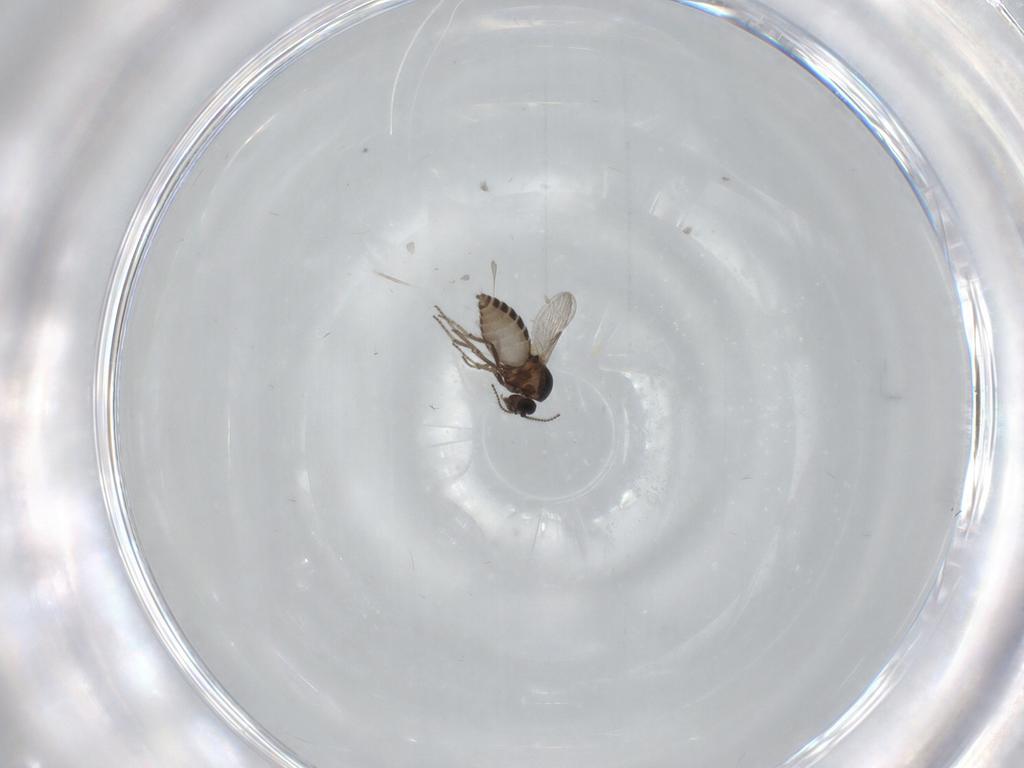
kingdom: Animalia
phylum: Arthropoda
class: Insecta
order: Diptera
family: Ceratopogonidae
